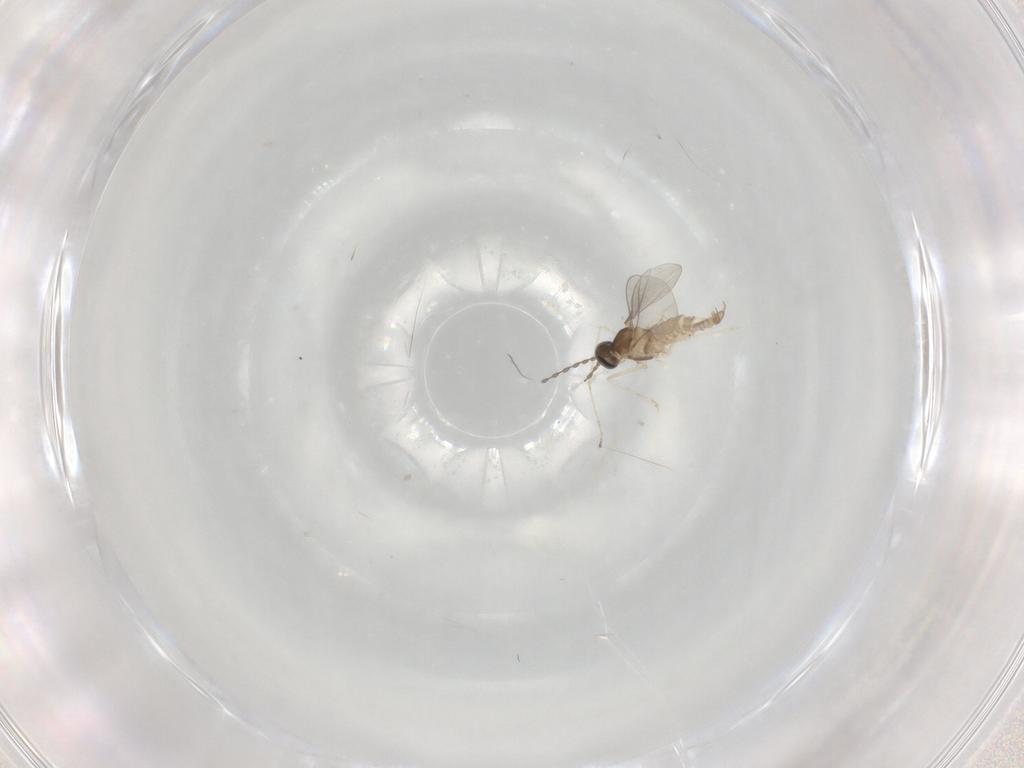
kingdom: Animalia
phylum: Arthropoda
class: Insecta
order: Diptera
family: Cecidomyiidae
